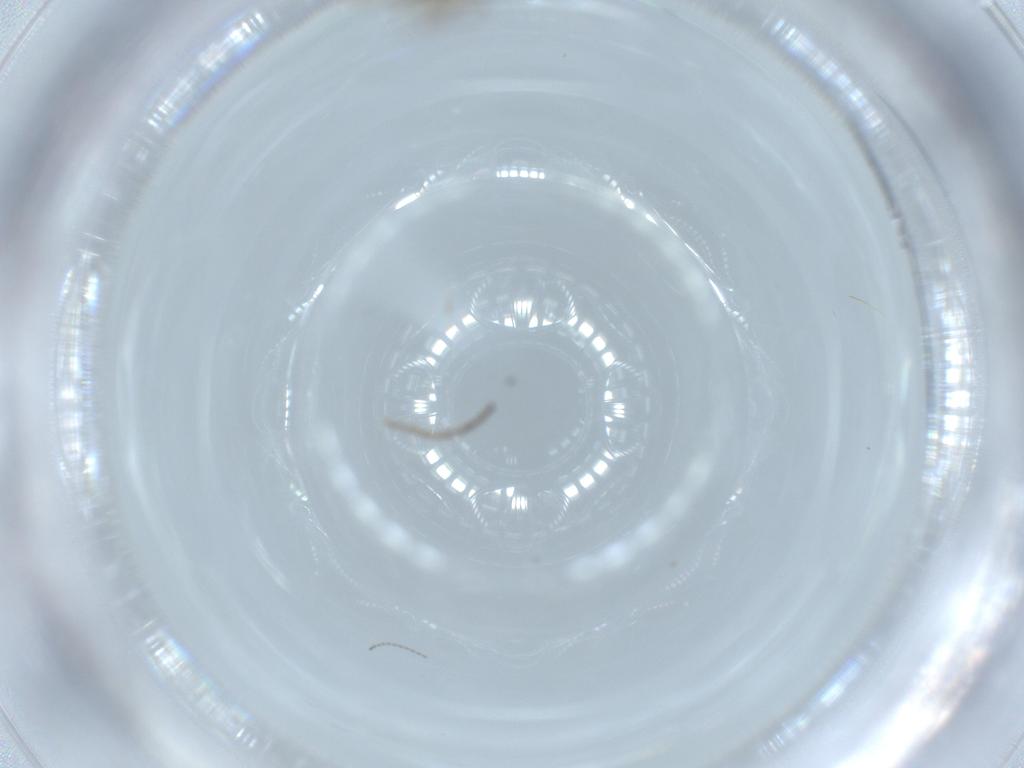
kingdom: Animalia
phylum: Arthropoda
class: Insecta
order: Diptera
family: Chironomidae
